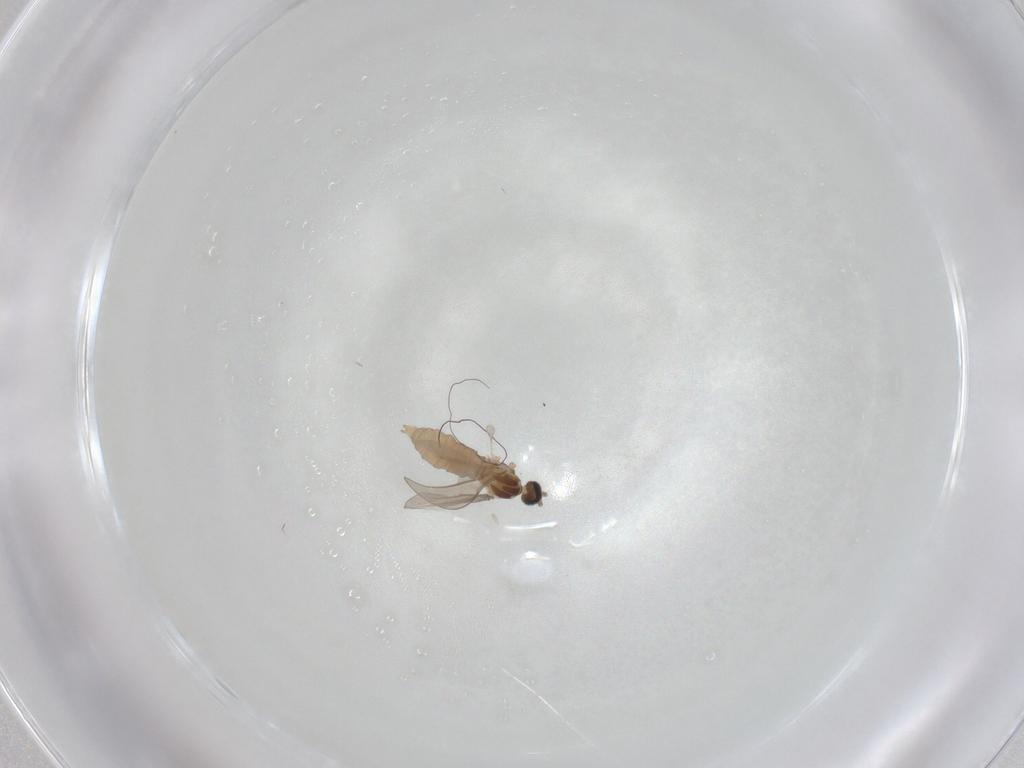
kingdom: Animalia
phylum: Arthropoda
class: Insecta
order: Diptera
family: Cecidomyiidae
